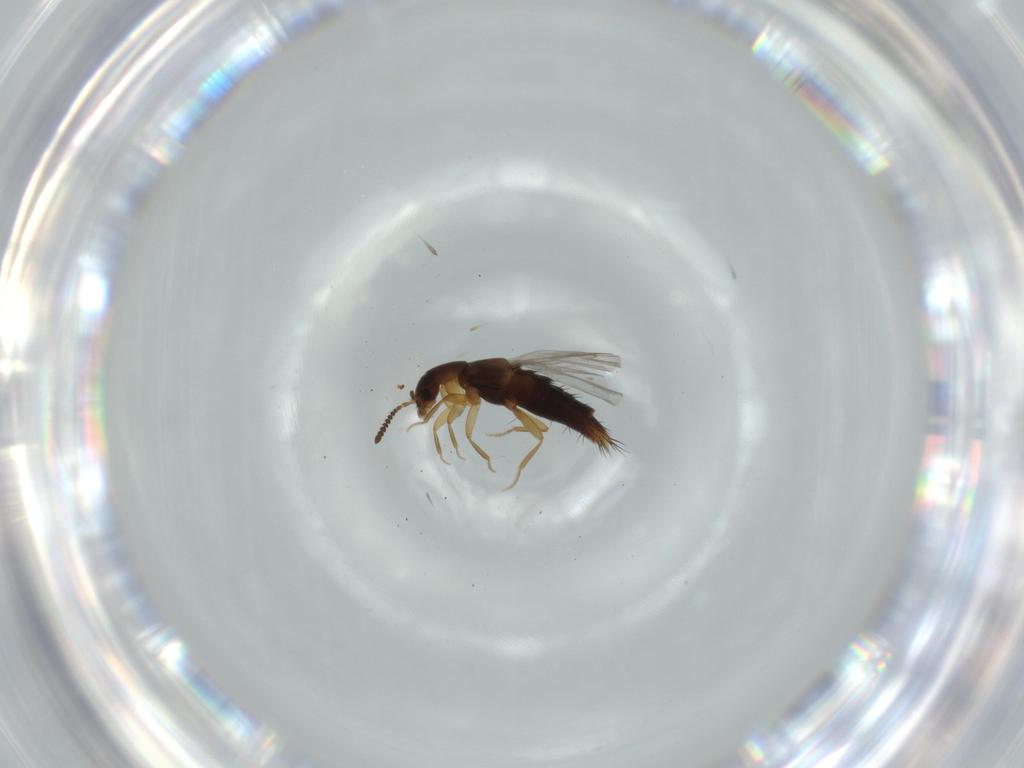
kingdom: Animalia
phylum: Arthropoda
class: Insecta
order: Coleoptera
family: Staphylinidae
